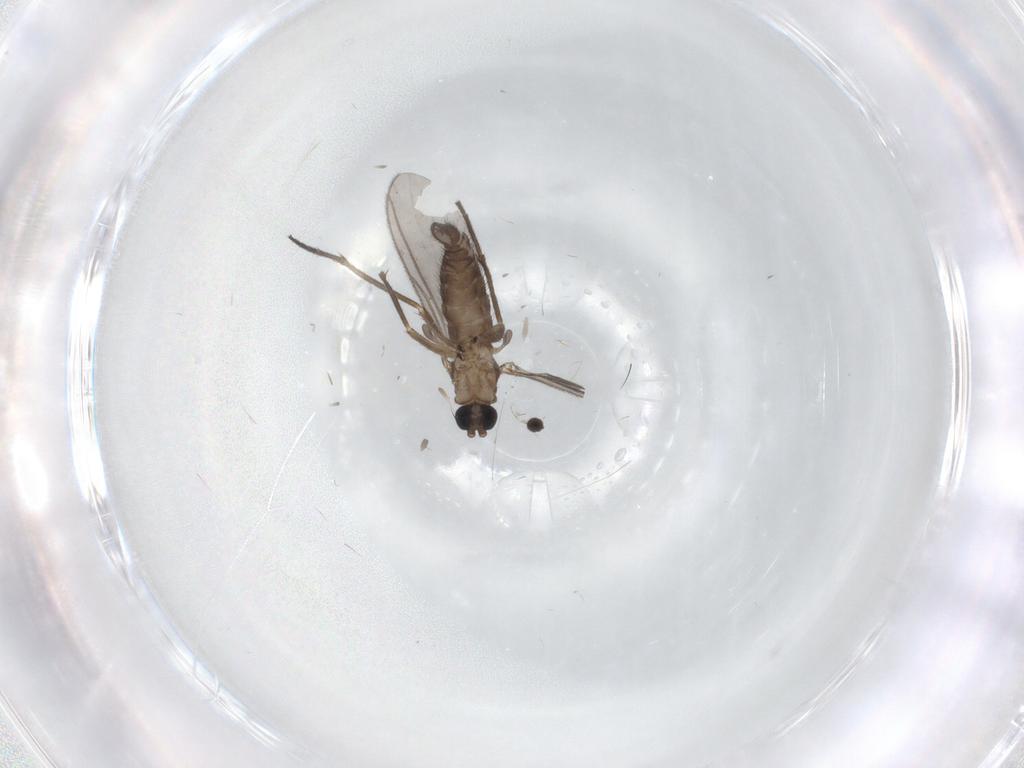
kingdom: Animalia
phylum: Arthropoda
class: Insecta
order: Diptera
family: Sciaridae
